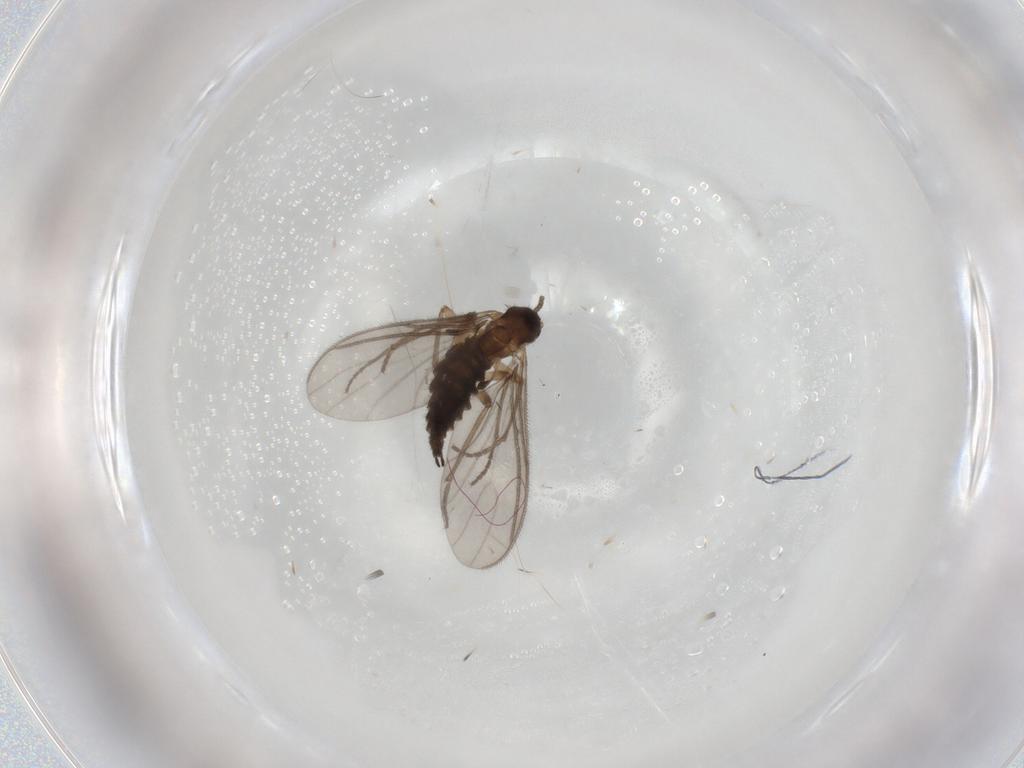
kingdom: Animalia
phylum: Arthropoda
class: Insecta
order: Diptera
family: Sciaridae
